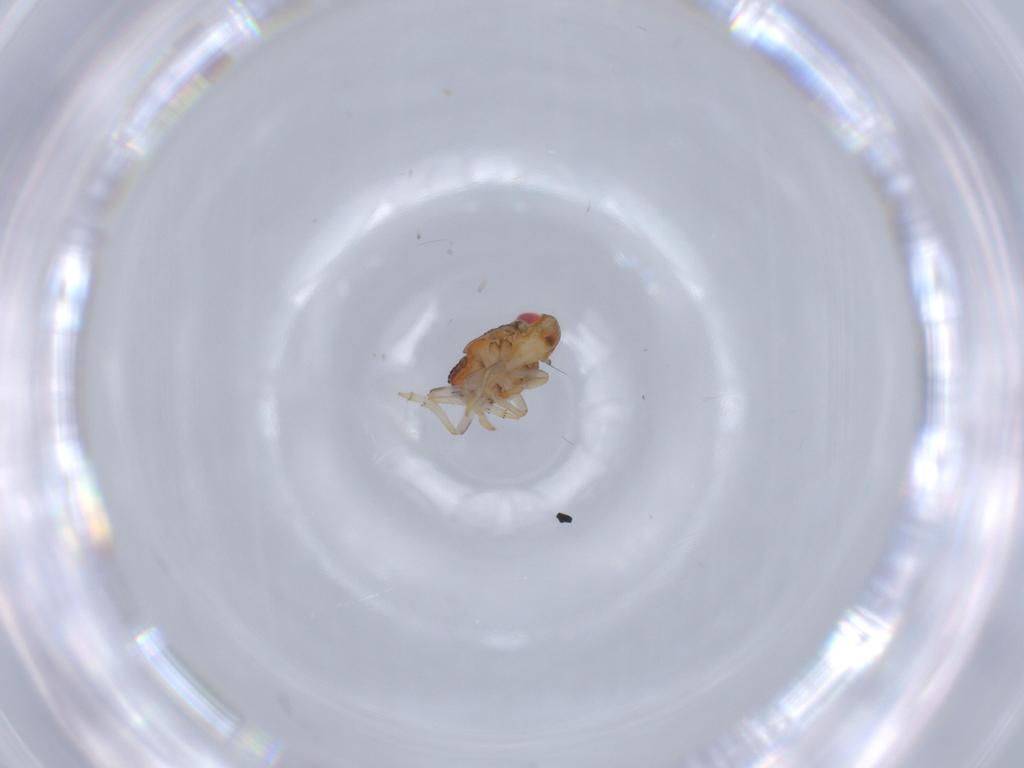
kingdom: Animalia
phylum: Arthropoda
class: Insecta
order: Hemiptera
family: Issidae
